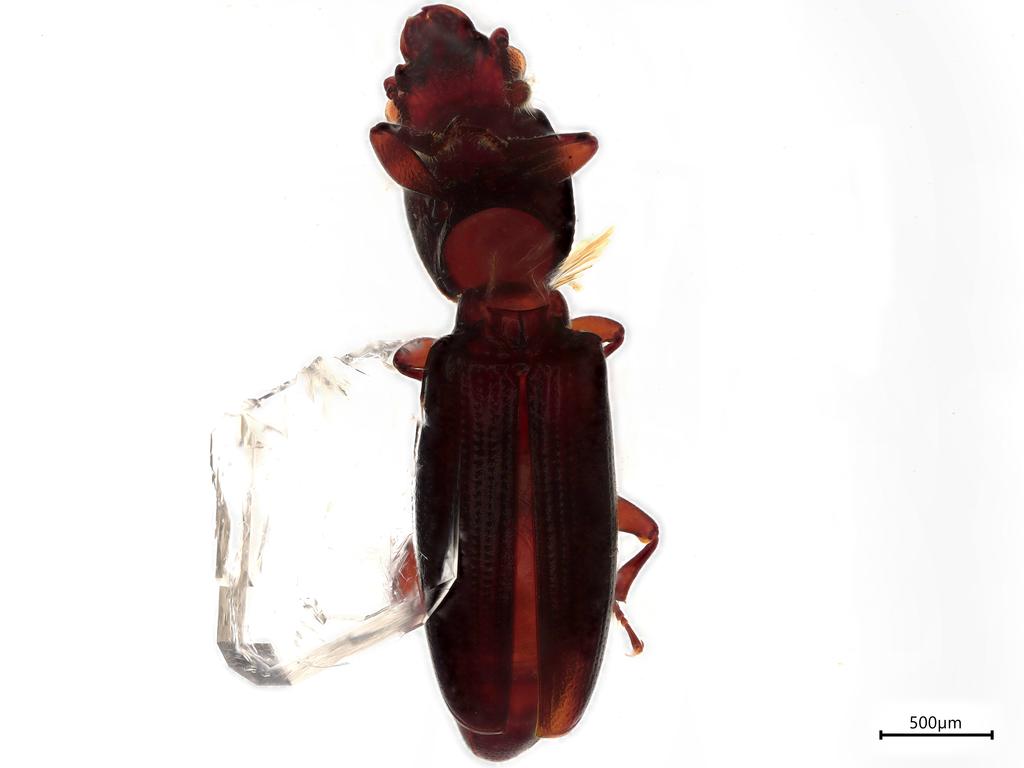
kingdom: Animalia
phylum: Arthropoda
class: Insecta
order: Coleoptera
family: Monotomidae
